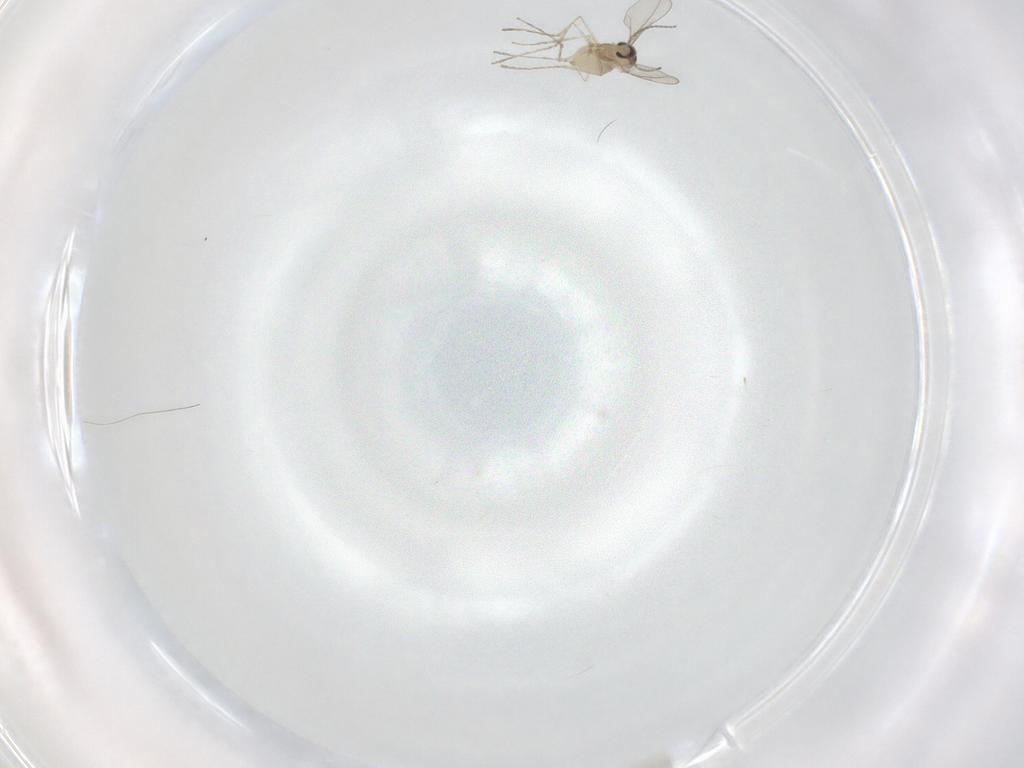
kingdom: Animalia
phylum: Arthropoda
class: Insecta
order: Diptera
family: Cecidomyiidae
